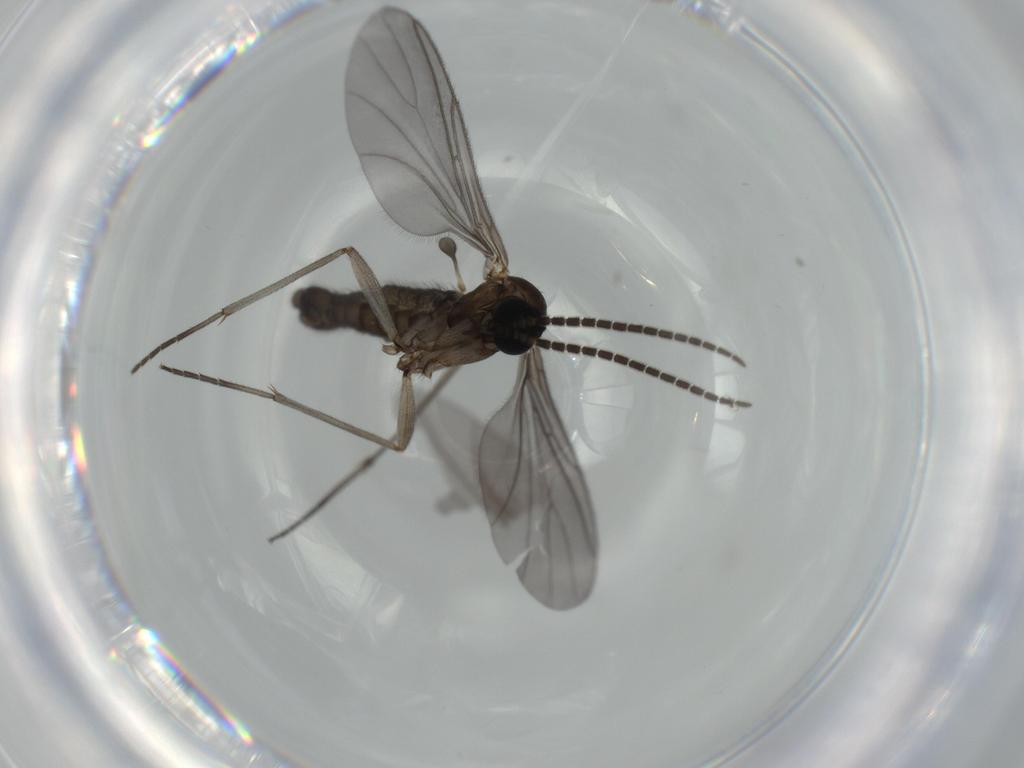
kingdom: Animalia
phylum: Arthropoda
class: Insecta
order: Diptera
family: Sciaridae
